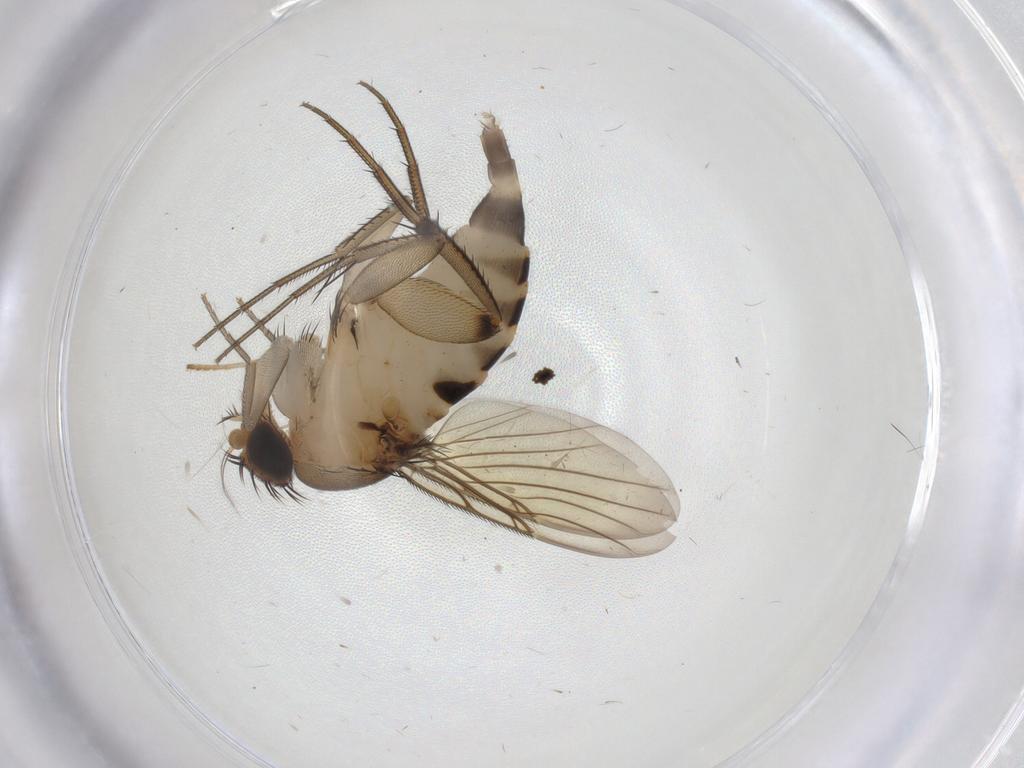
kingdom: Animalia
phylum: Arthropoda
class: Insecta
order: Diptera
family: Phoridae
